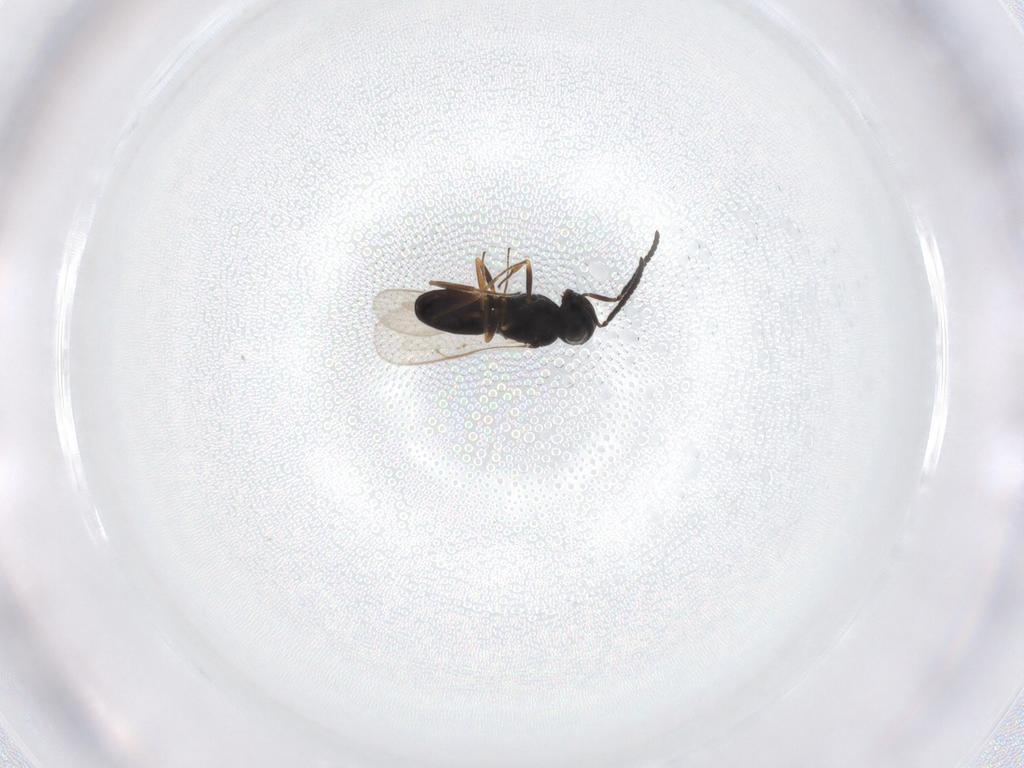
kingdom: Animalia
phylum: Arthropoda
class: Insecta
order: Hymenoptera
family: Scelionidae
